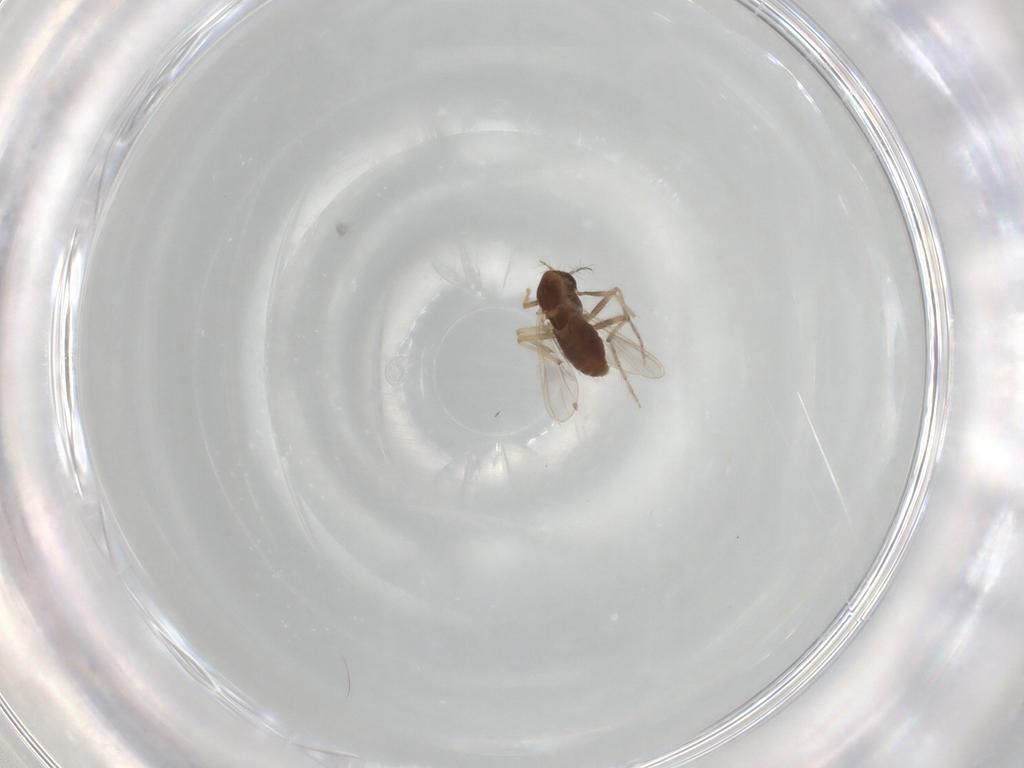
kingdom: Animalia
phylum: Arthropoda
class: Insecta
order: Diptera
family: Chironomidae
